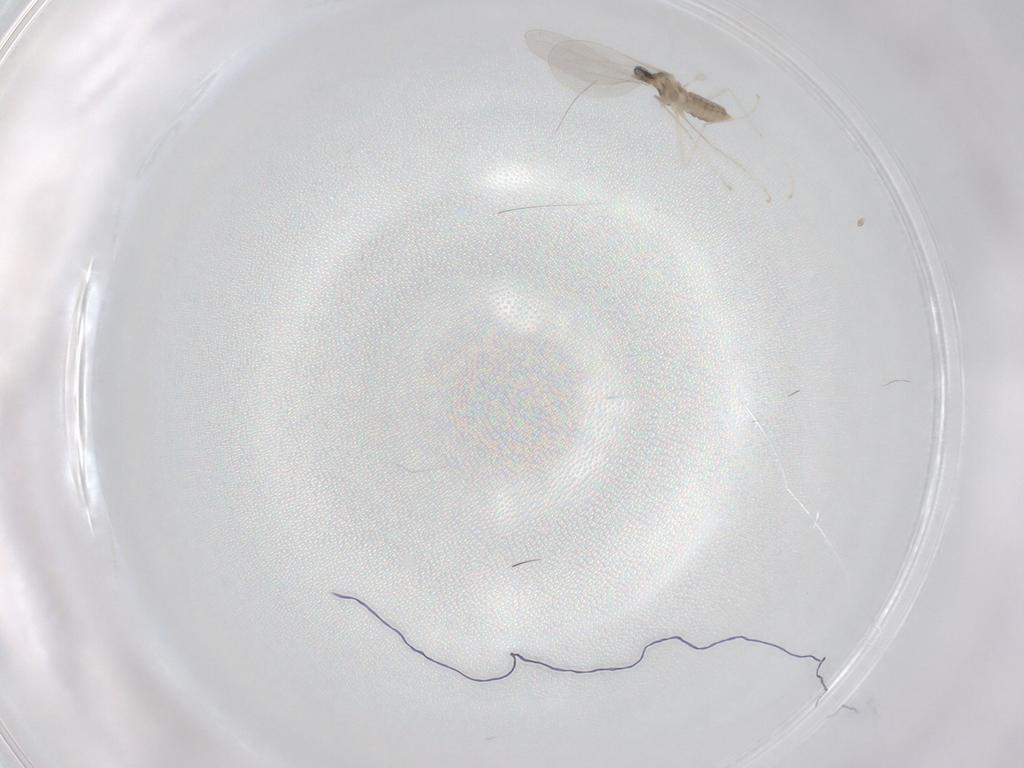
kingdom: Animalia
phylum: Arthropoda
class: Insecta
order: Diptera
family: Cecidomyiidae
